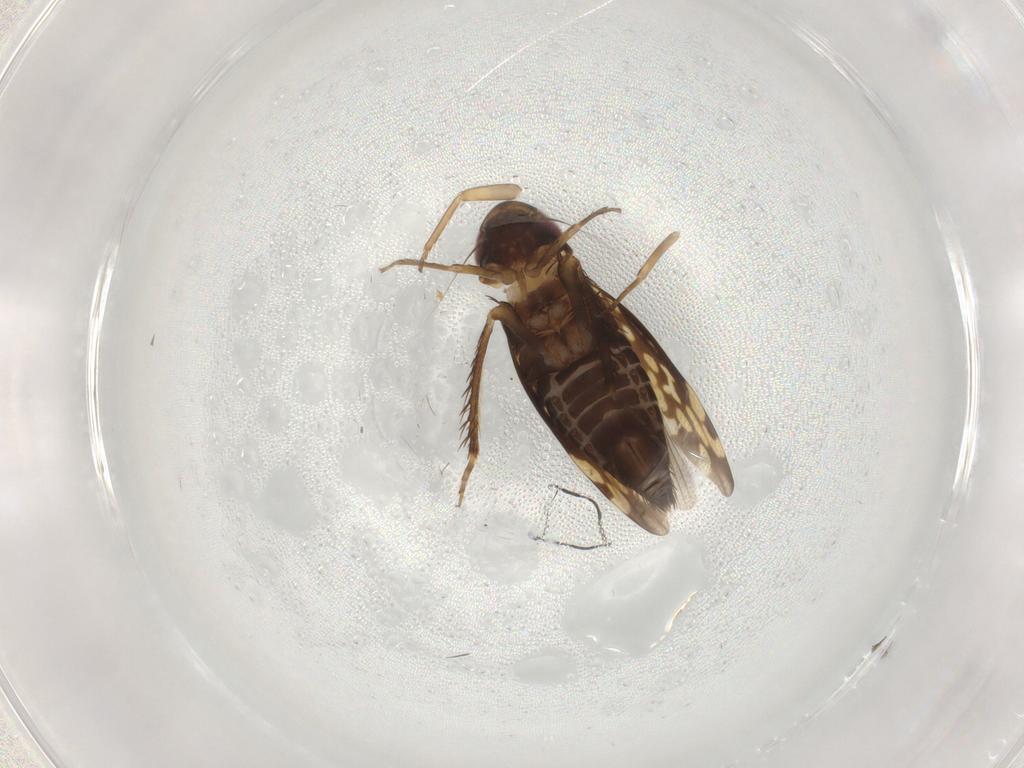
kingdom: Animalia
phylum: Arthropoda
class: Insecta
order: Hemiptera
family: Cicadellidae
